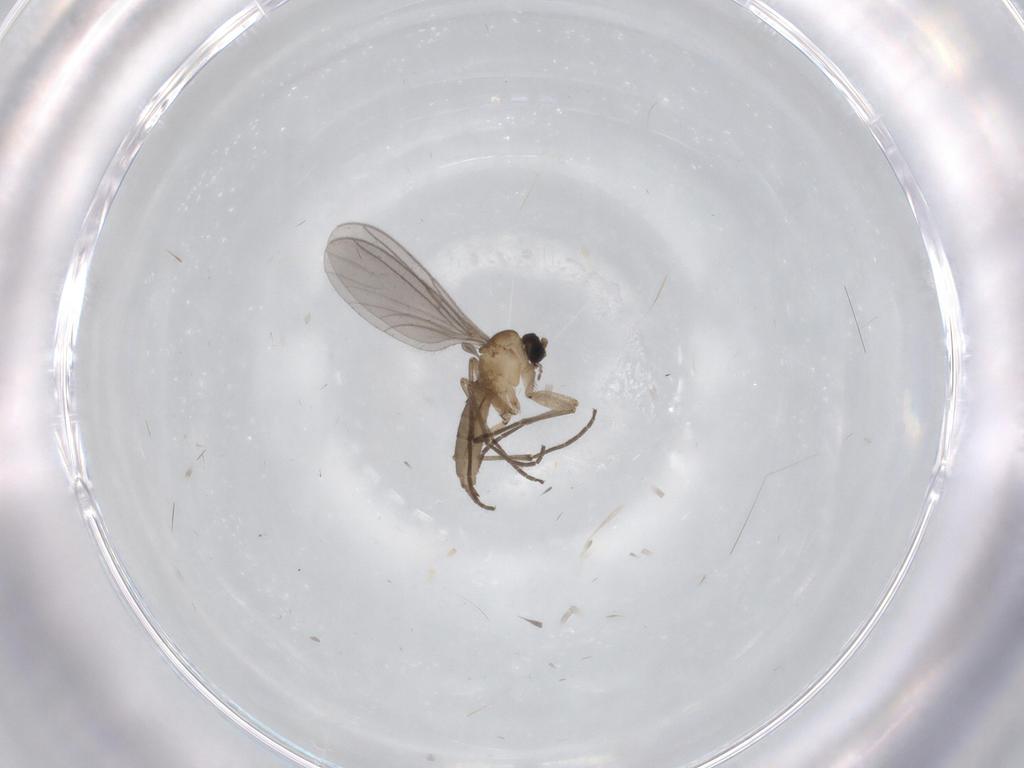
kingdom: Animalia
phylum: Arthropoda
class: Insecta
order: Diptera
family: Sciaridae
